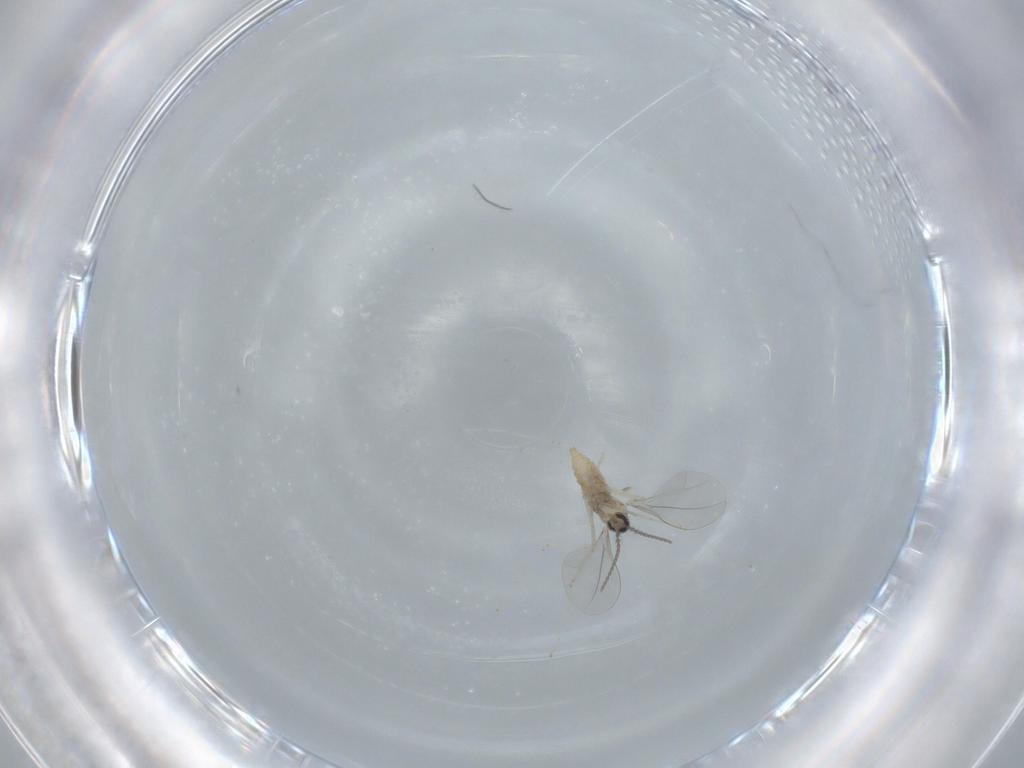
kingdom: Animalia
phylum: Arthropoda
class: Insecta
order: Diptera
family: Cecidomyiidae
